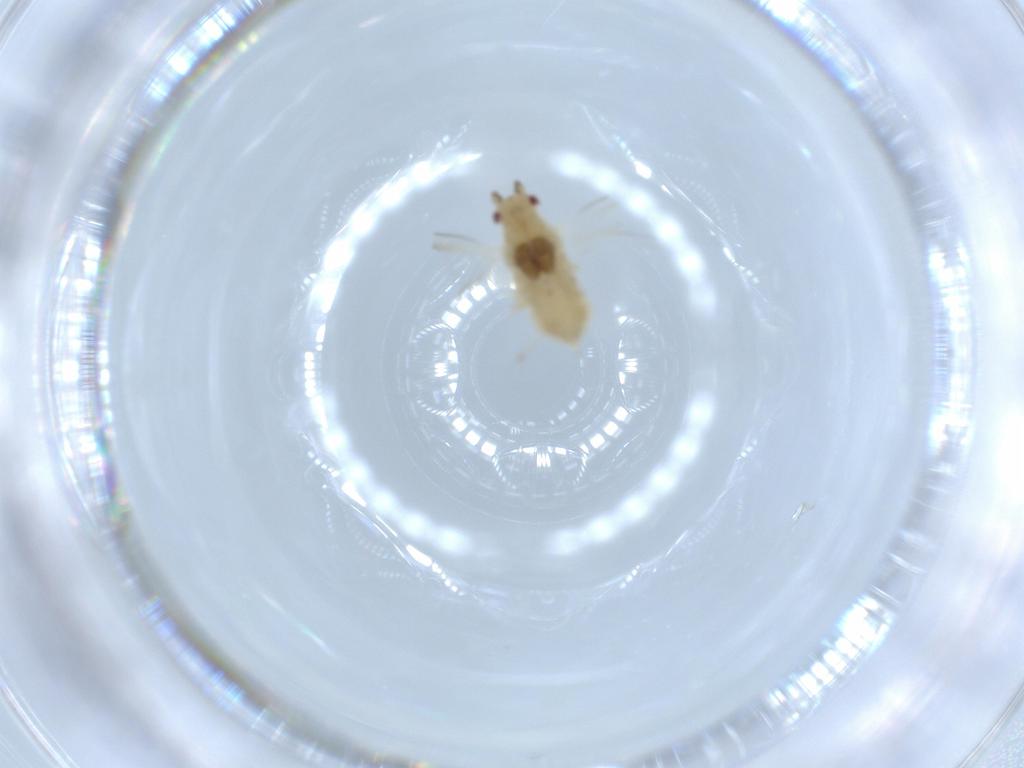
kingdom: Animalia
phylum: Arthropoda
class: Insecta
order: Hemiptera
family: Aphididae
